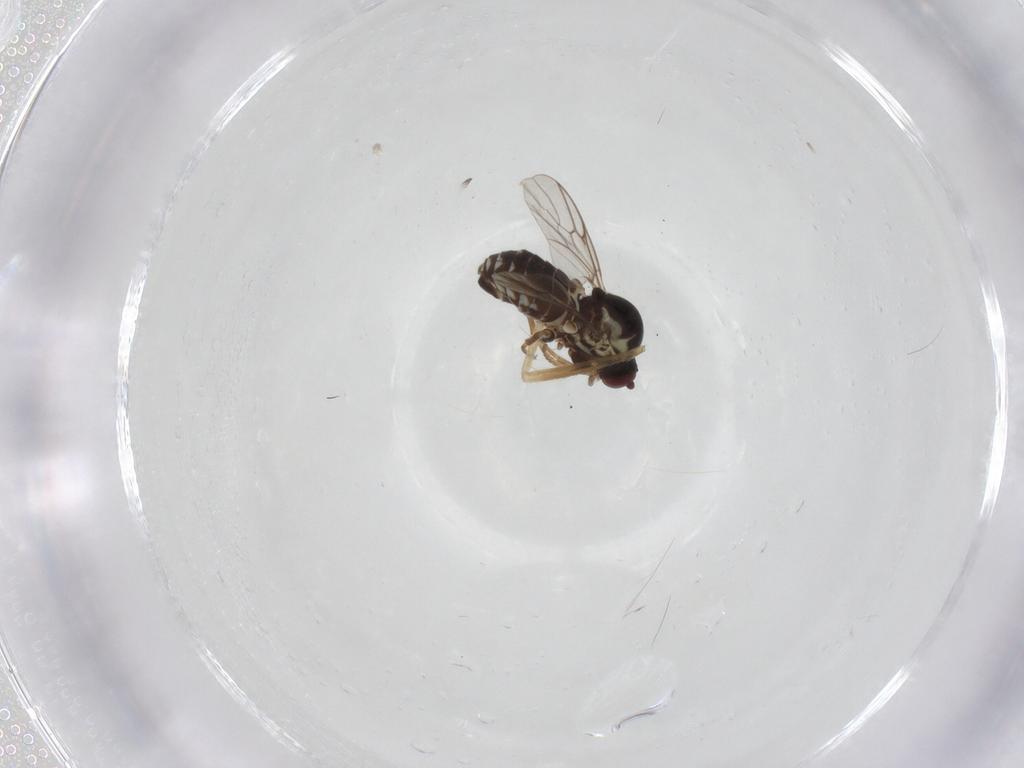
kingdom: Animalia
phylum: Arthropoda
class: Insecta
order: Diptera
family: Bombyliidae
